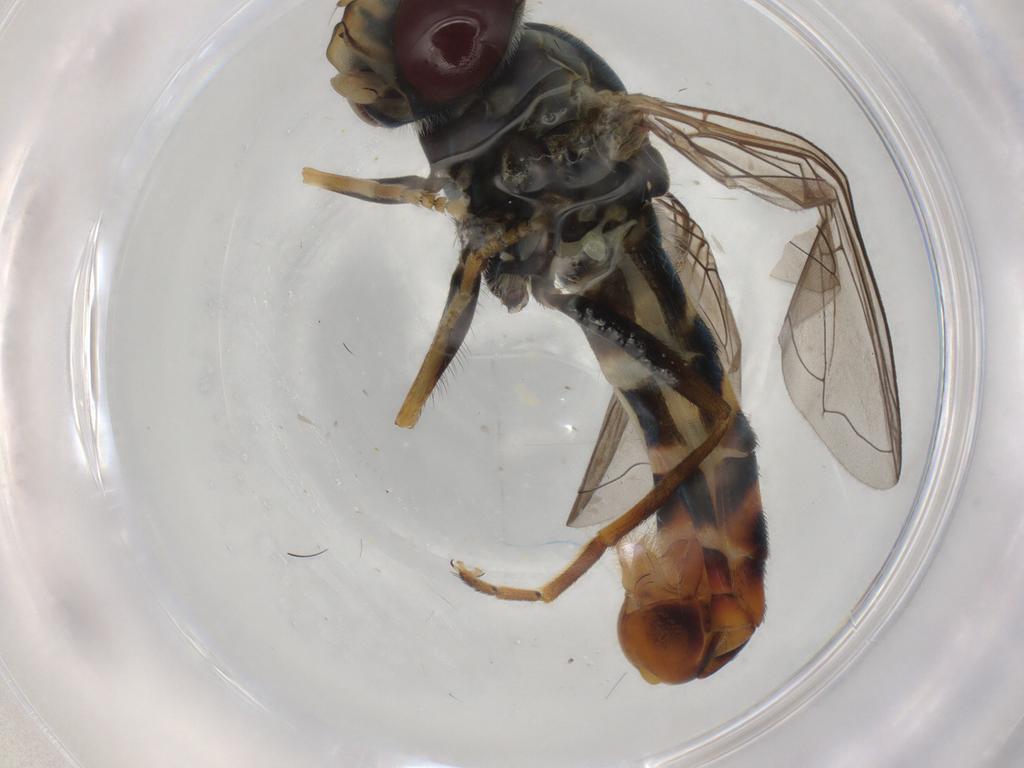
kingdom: Animalia
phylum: Arthropoda
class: Insecta
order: Diptera
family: Syrphidae
